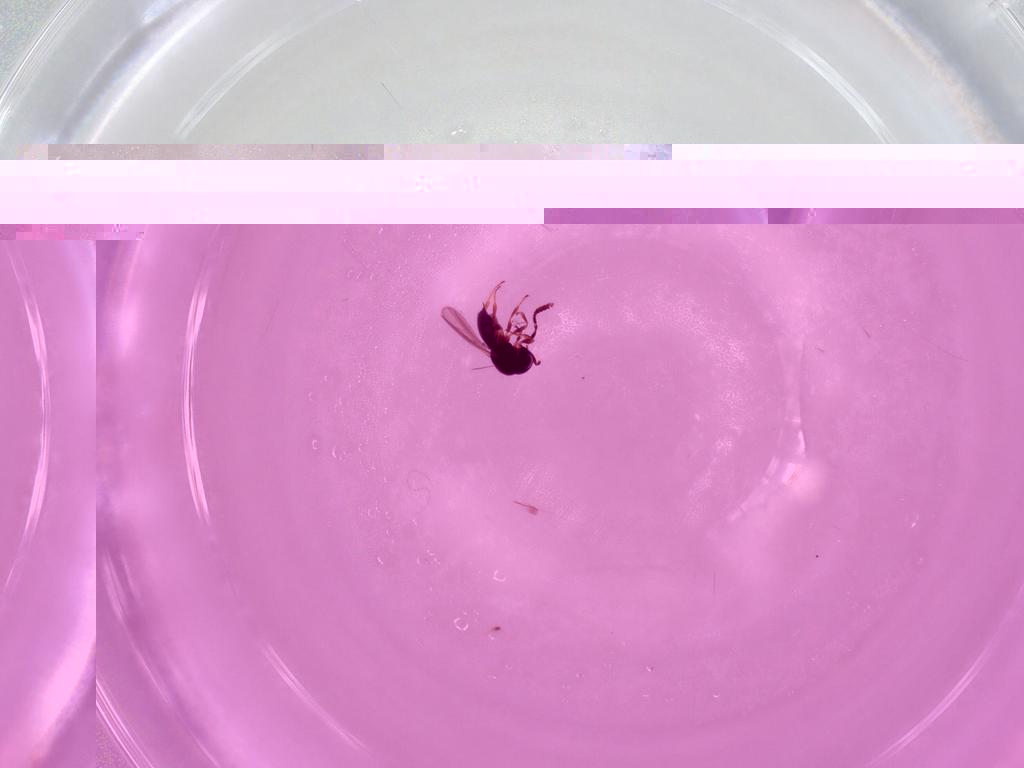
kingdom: Animalia
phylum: Arthropoda
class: Insecta
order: Hymenoptera
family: Scelionidae
